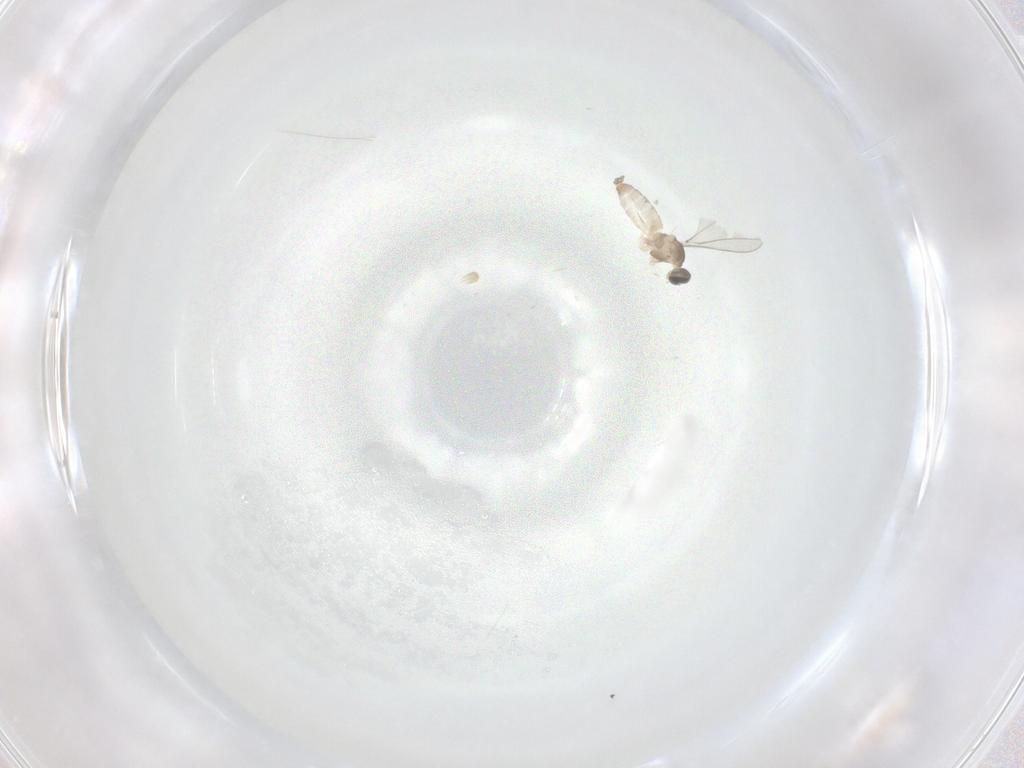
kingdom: Animalia
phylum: Arthropoda
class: Insecta
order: Diptera
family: Cecidomyiidae
